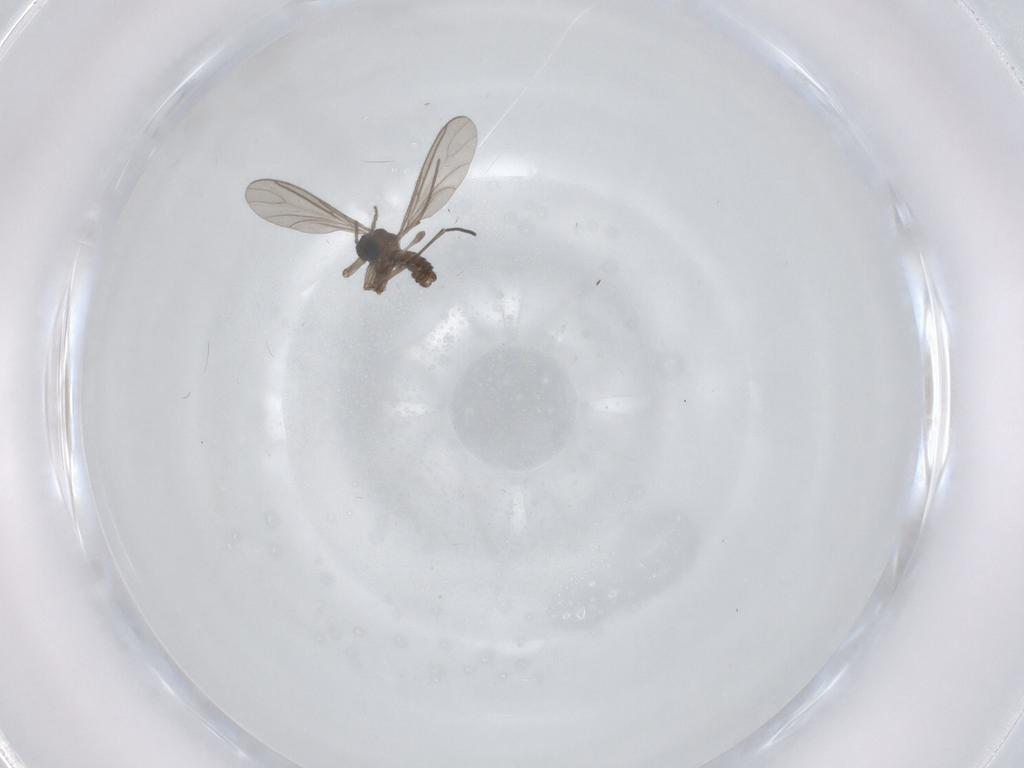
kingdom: Animalia
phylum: Arthropoda
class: Insecta
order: Diptera
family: Sciaridae
